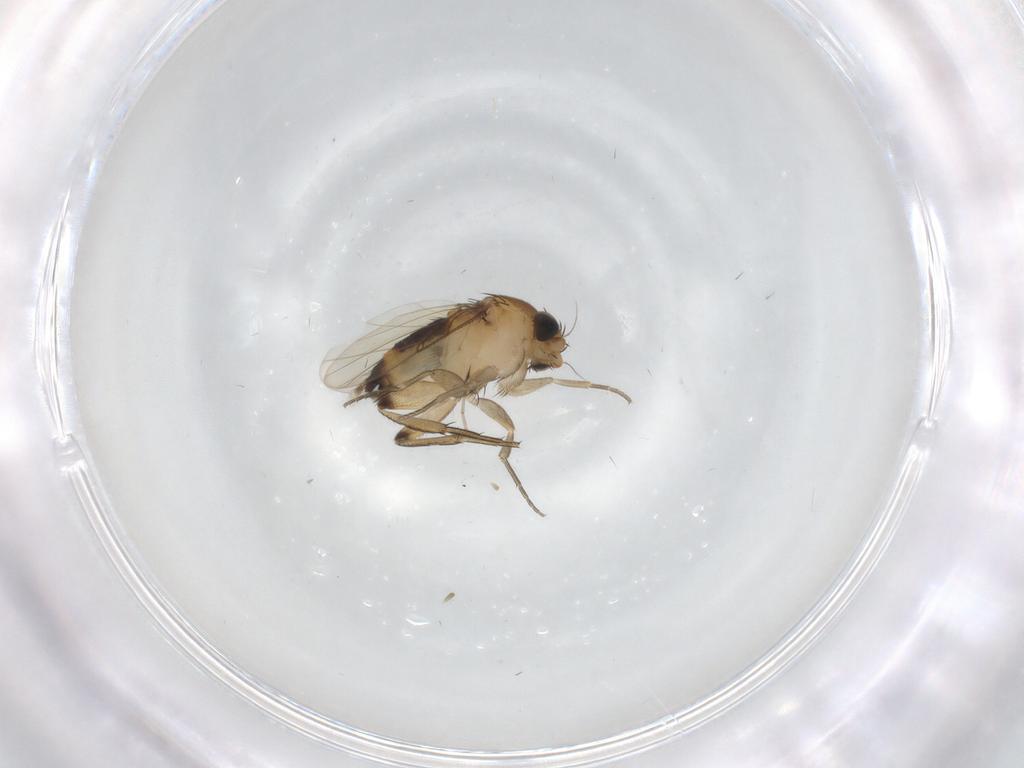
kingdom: Animalia
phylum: Arthropoda
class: Insecta
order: Diptera
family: Phoridae
